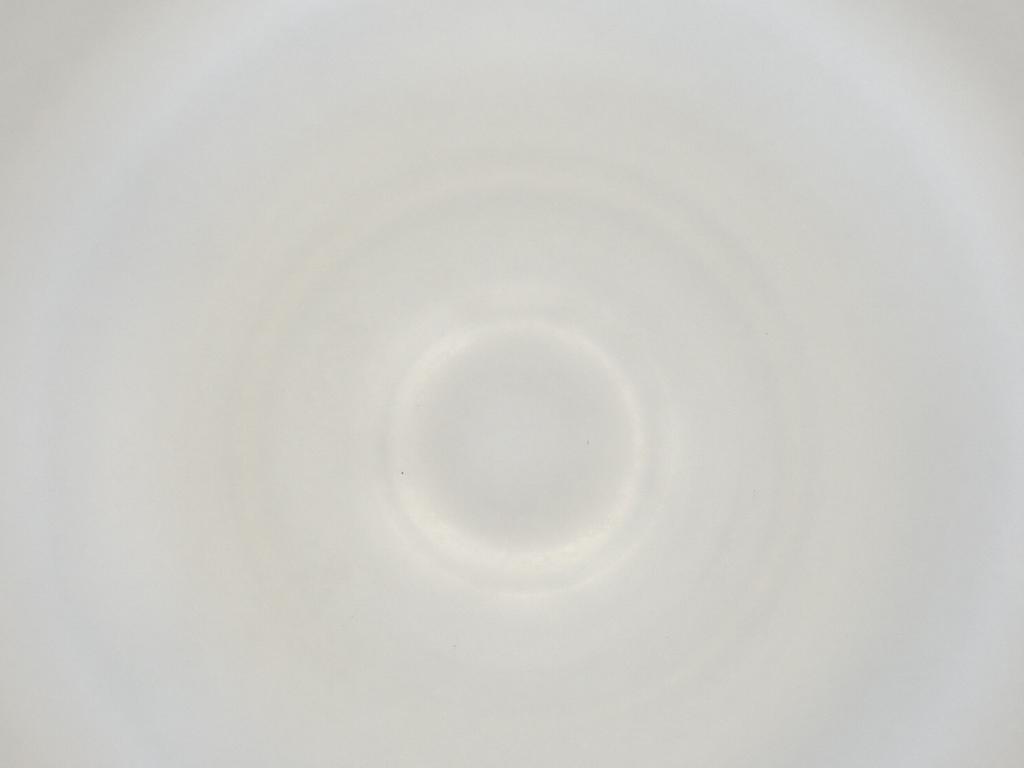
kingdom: Animalia
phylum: Arthropoda
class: Insecta
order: Diptera
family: Cecidomyiidae
